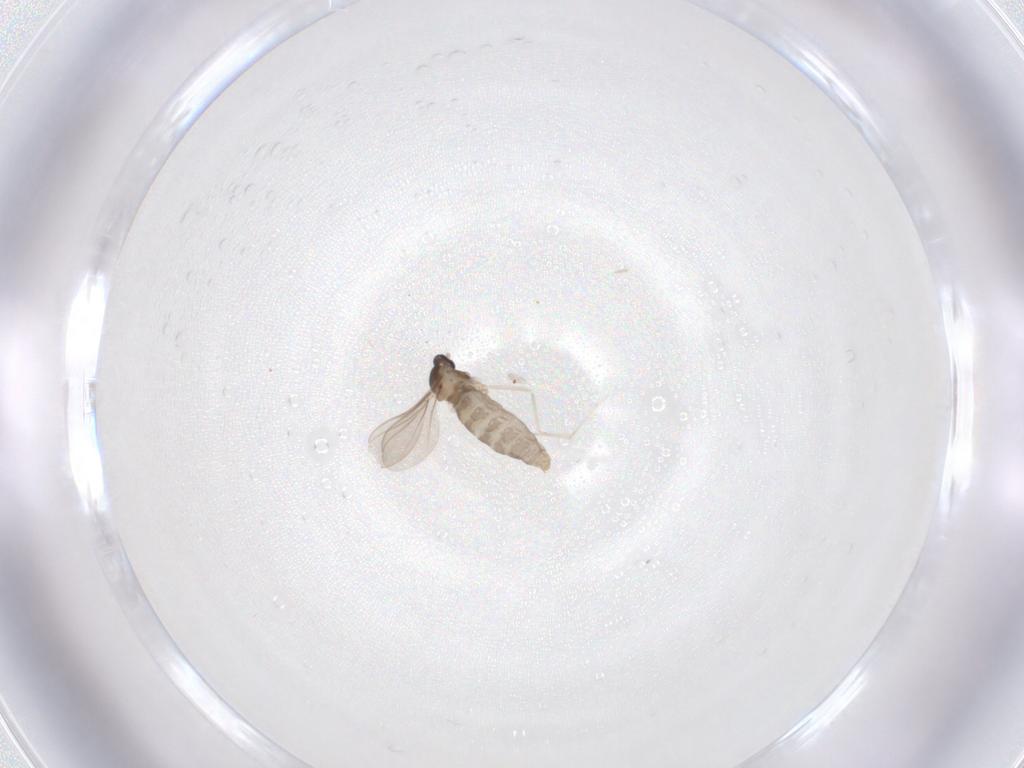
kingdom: Animalia
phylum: Arthropoda
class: Insecta
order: Diptera
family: Cecidomyiidae
